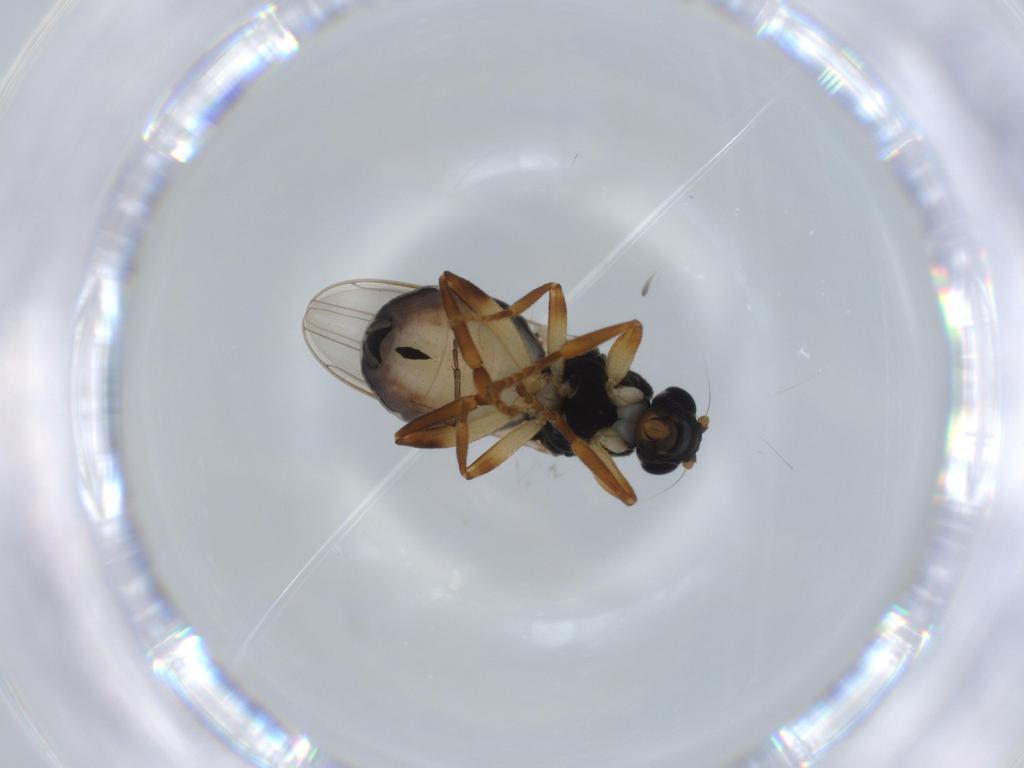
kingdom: Animalia
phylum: Arthropoda
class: Insecta
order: Diptera
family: Sciaridae
